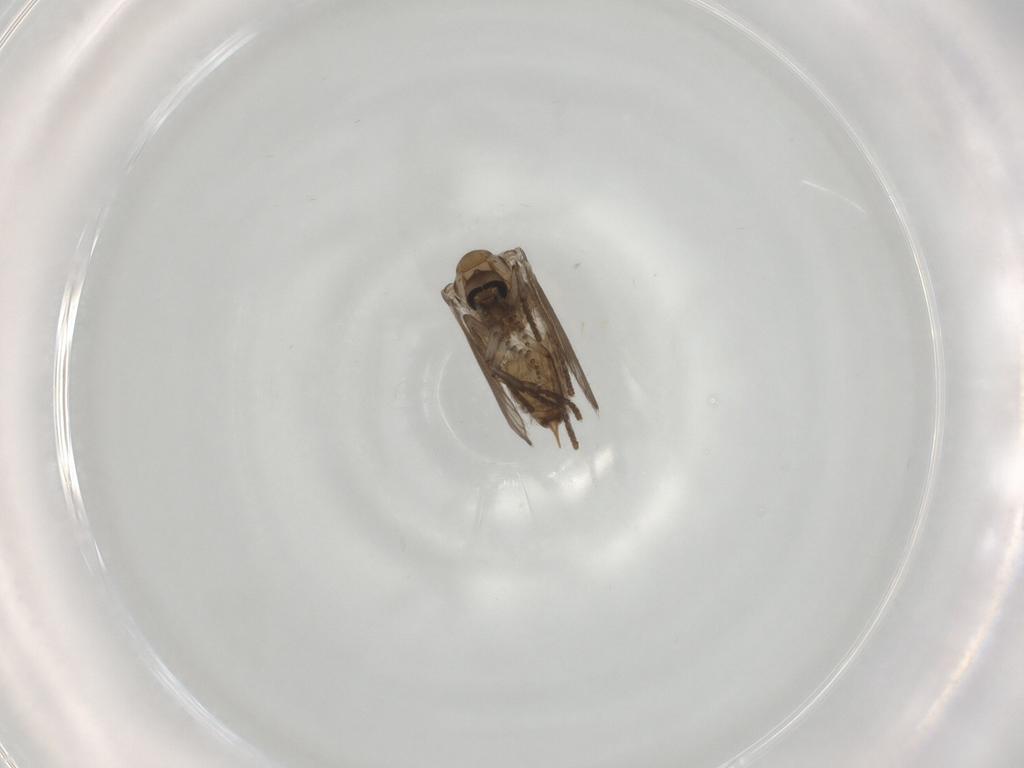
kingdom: Animalia
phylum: Arthropoda
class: Insecta
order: Diptera
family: Psychodidae
